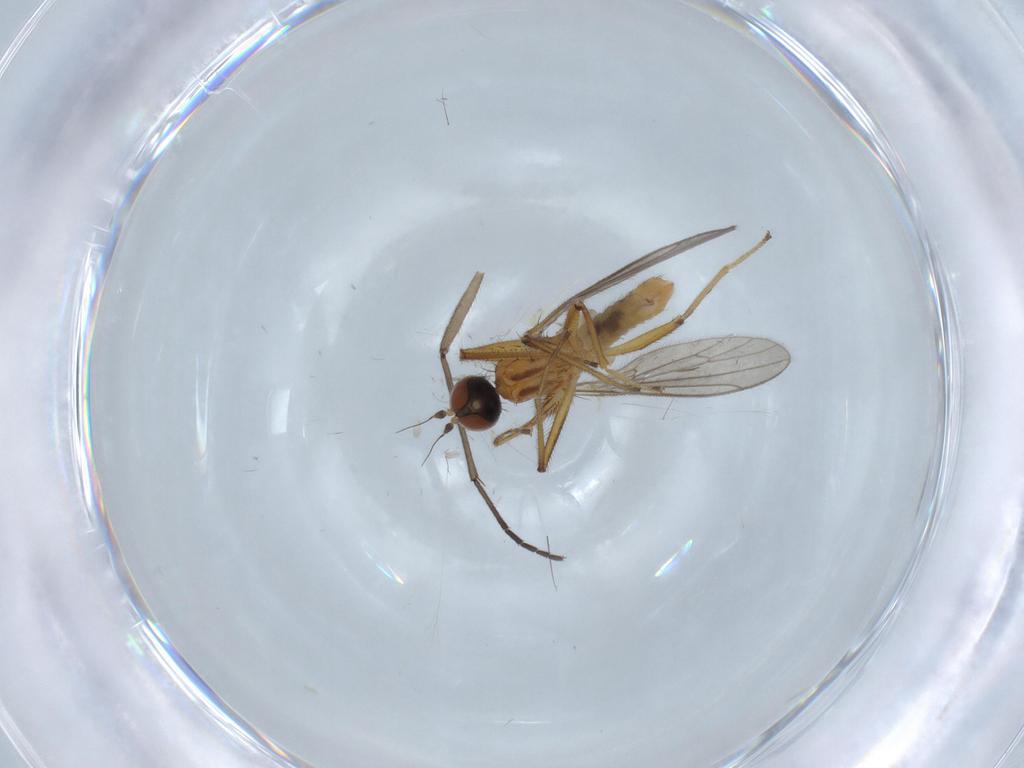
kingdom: Animalia
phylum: Arthropoda
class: Insecta
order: Diptera
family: Empididae
